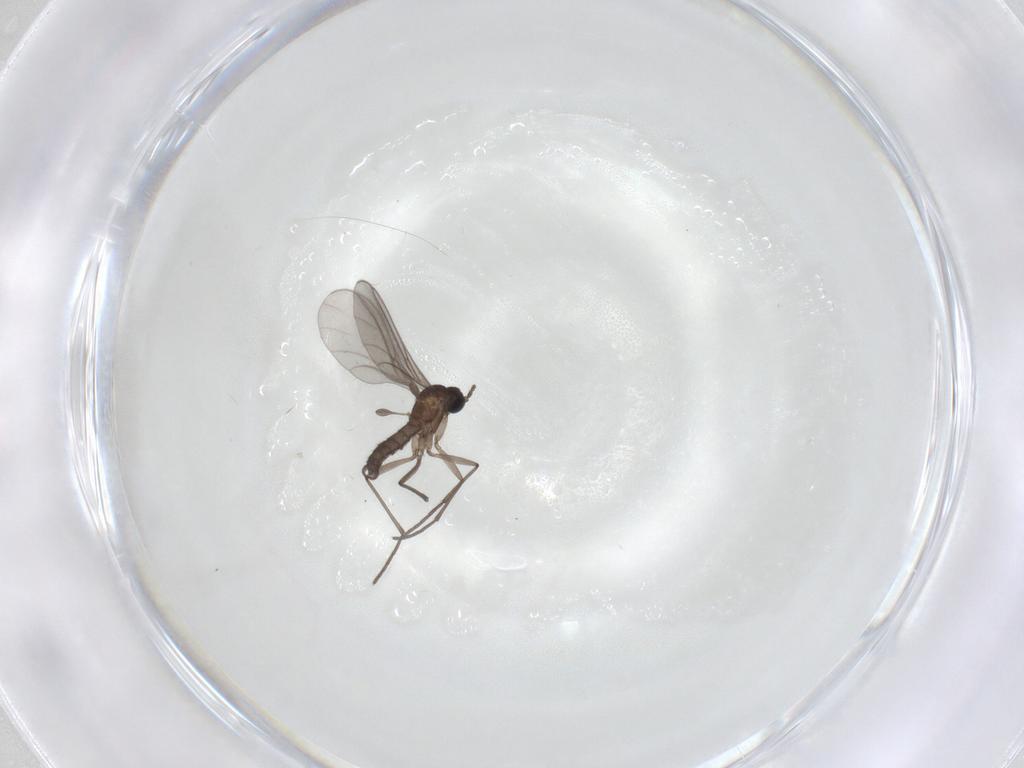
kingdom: Animalia
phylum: Arthropoda
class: Insecta
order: Diptera
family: Sciaridae
